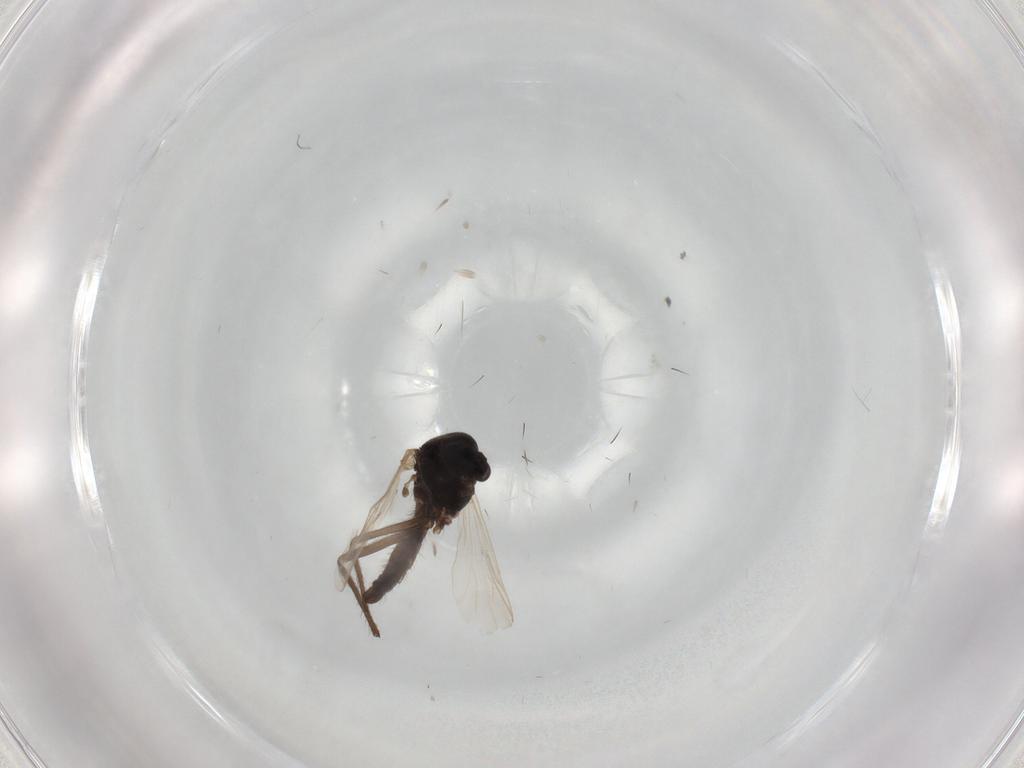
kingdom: Animalia
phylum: Arthropoda
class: Insecta
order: Diptera
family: Chironomidae
